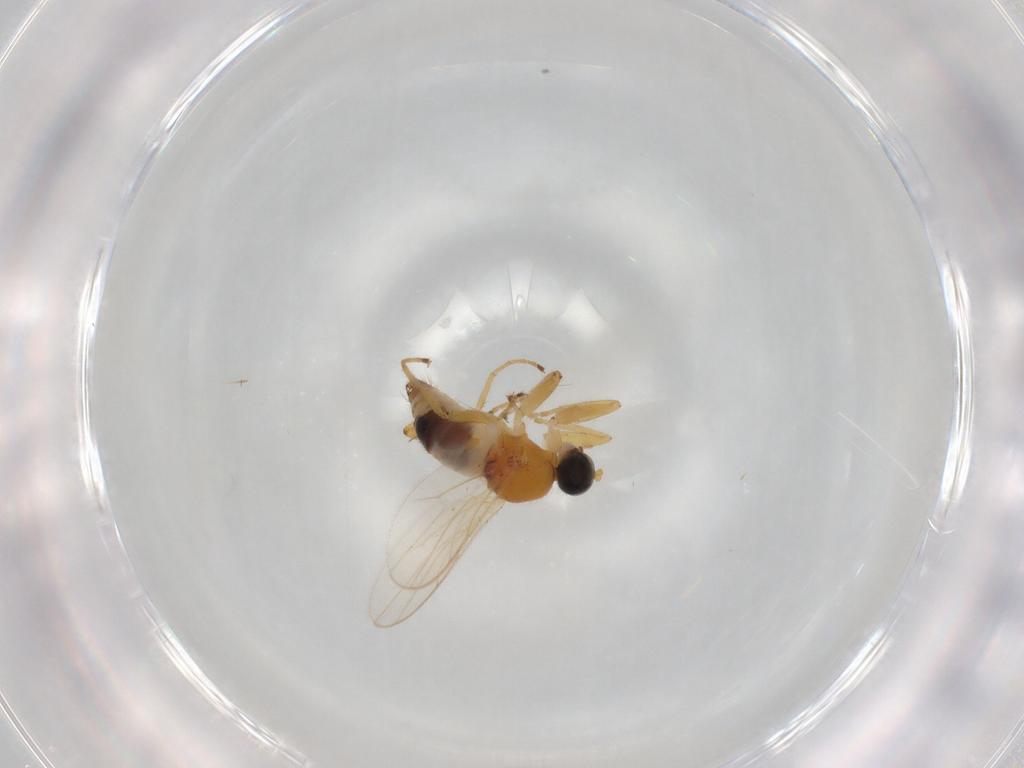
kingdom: Animalia
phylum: Arthropoda
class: Insecta
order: Diptera
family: Hybotidae
